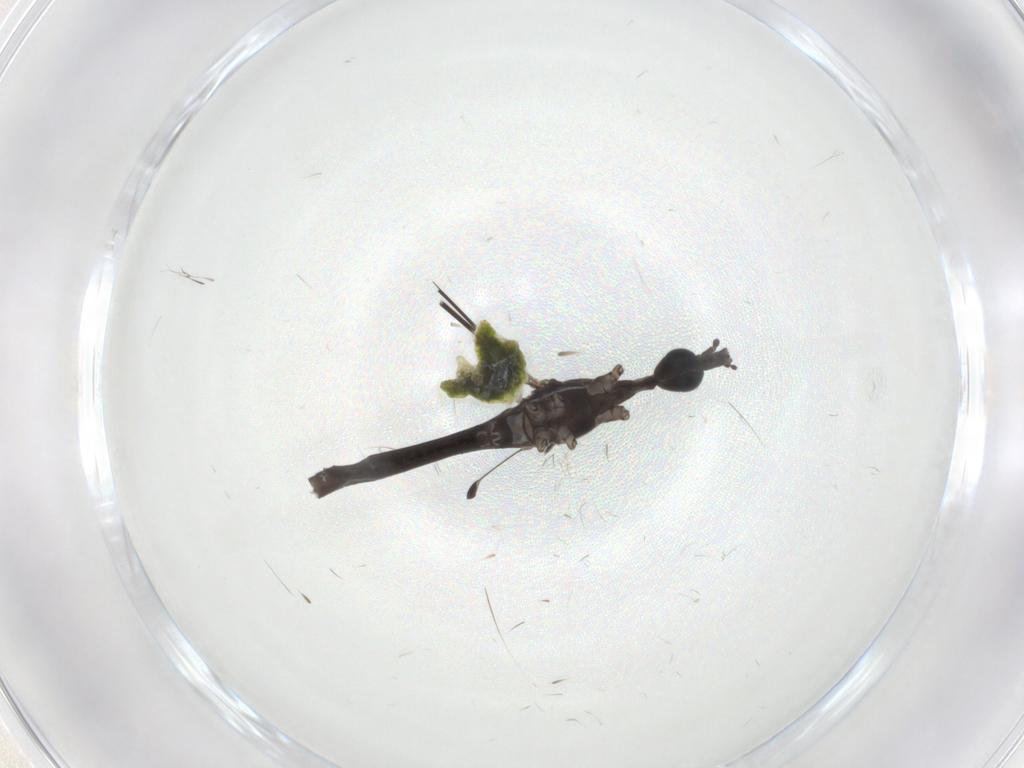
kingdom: Animalia
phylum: Arthropoda
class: Insecta
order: Diptera
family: Limoniidae
